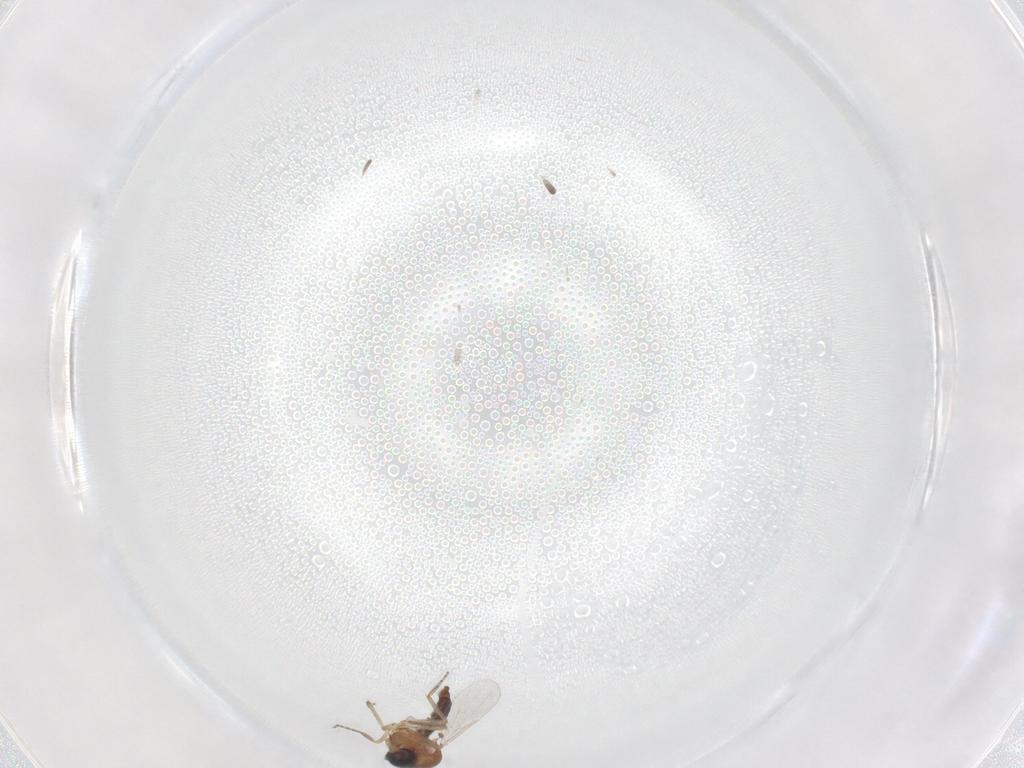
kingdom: Animalia
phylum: Arthropoda
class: Insecta
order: Diptera
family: Ceratopogonidae
